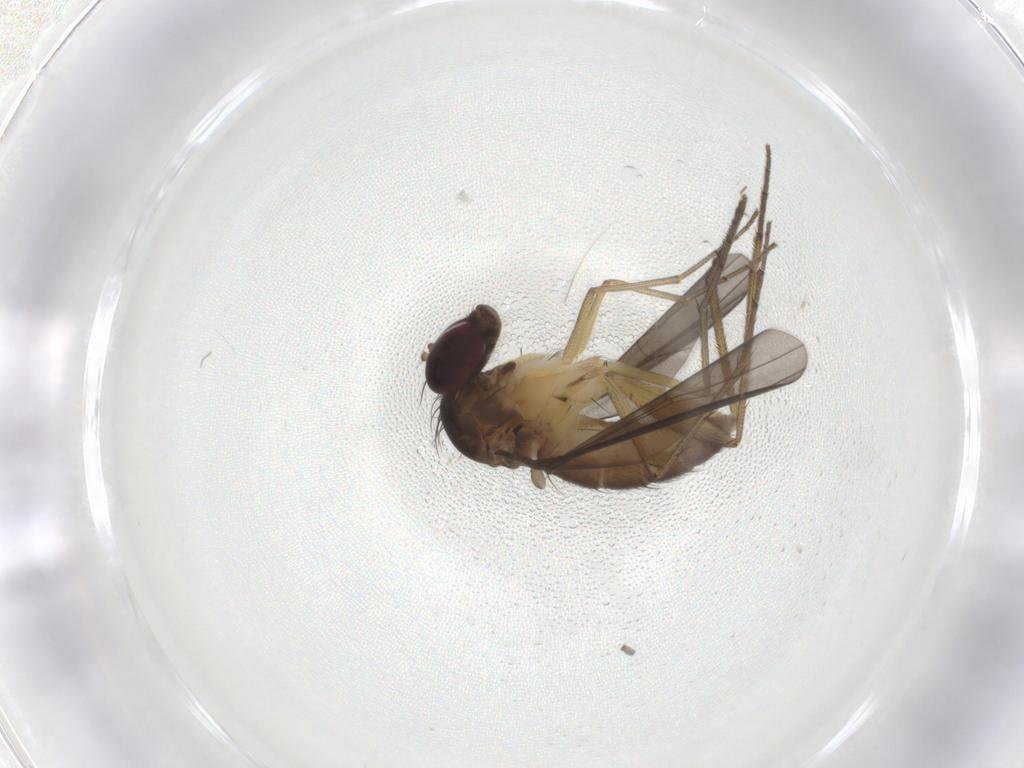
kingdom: Animalia
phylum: Arthropoda
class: Insecta
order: Diptera
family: Dolichopodidae
